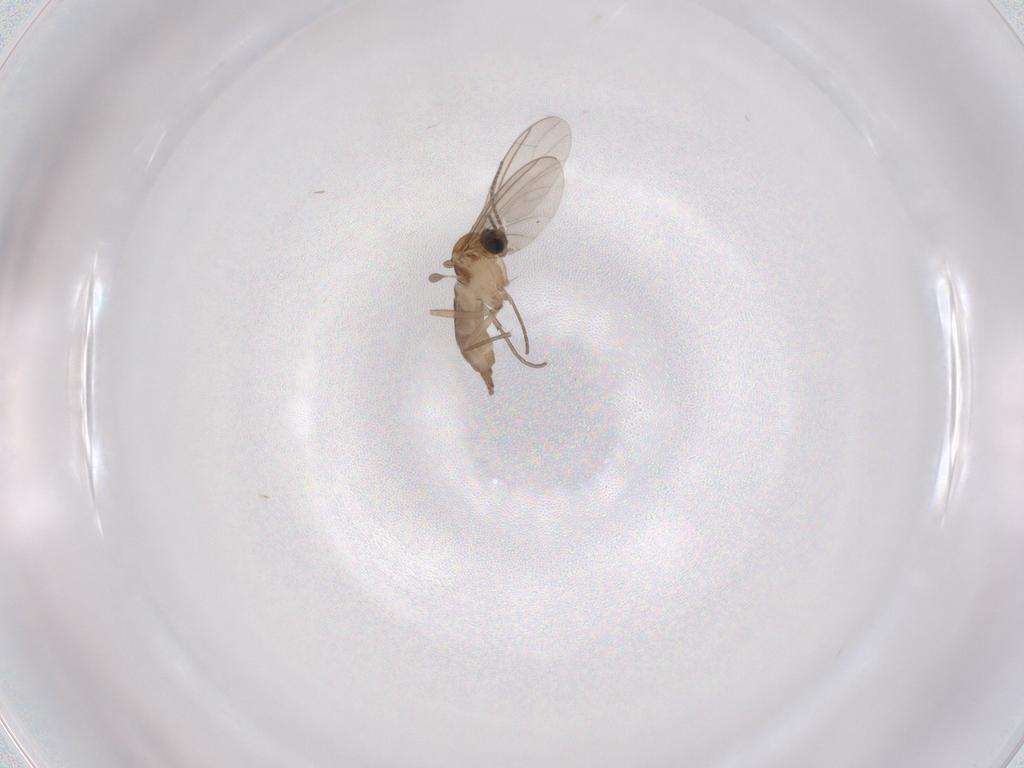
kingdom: Animalia
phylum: Arthropoda
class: Insecta
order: Diptera
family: Sciaridae
